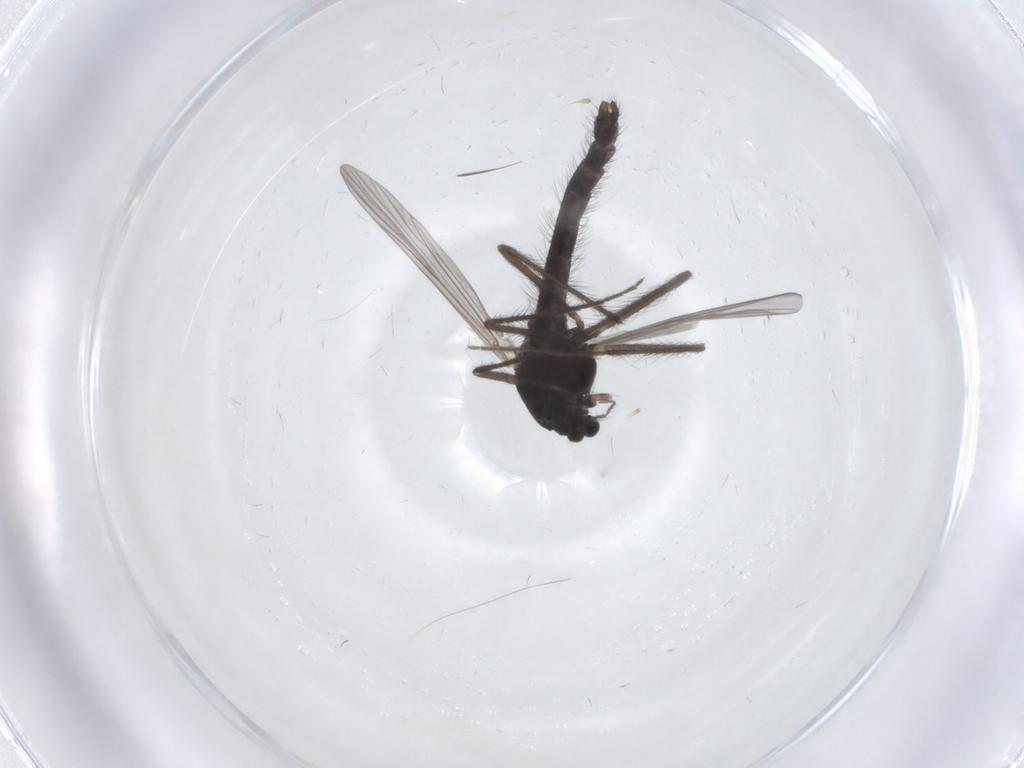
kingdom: Animalia
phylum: Arthropoda
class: Insecta
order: Diptera
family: Chironomidae
